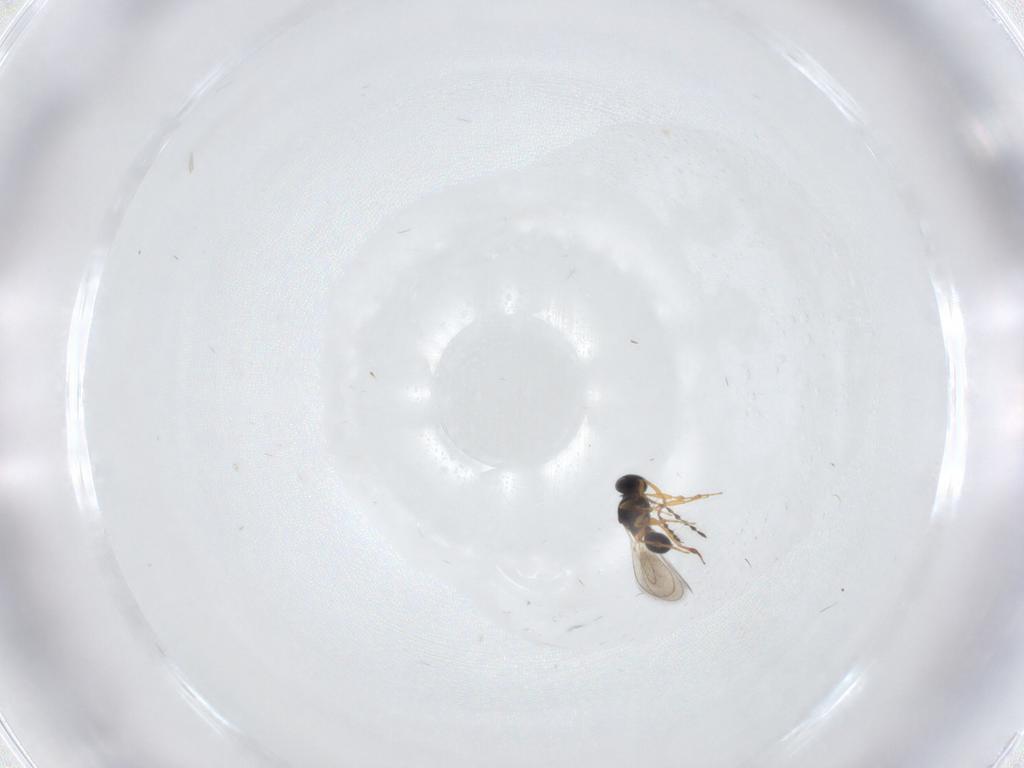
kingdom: Animalia
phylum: Arthropoda
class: Insecta
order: Hymenoptera
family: Platygastridae
